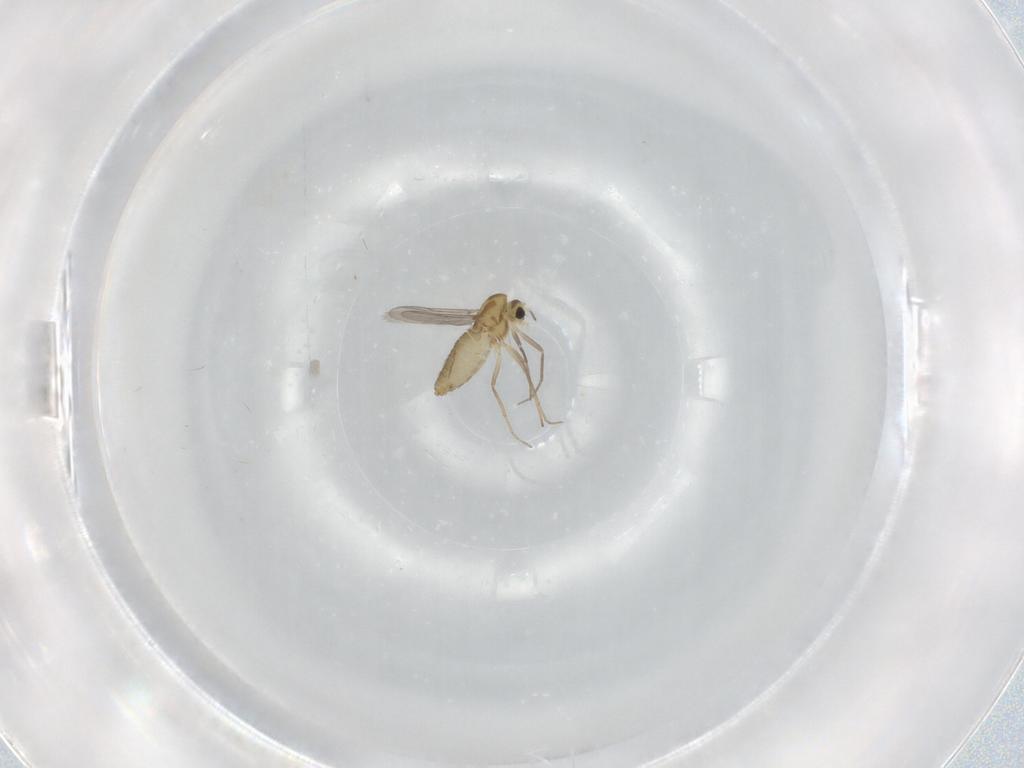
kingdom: Animalia
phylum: Arthropoda
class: Insecta
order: Diptera
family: Chironomidae
